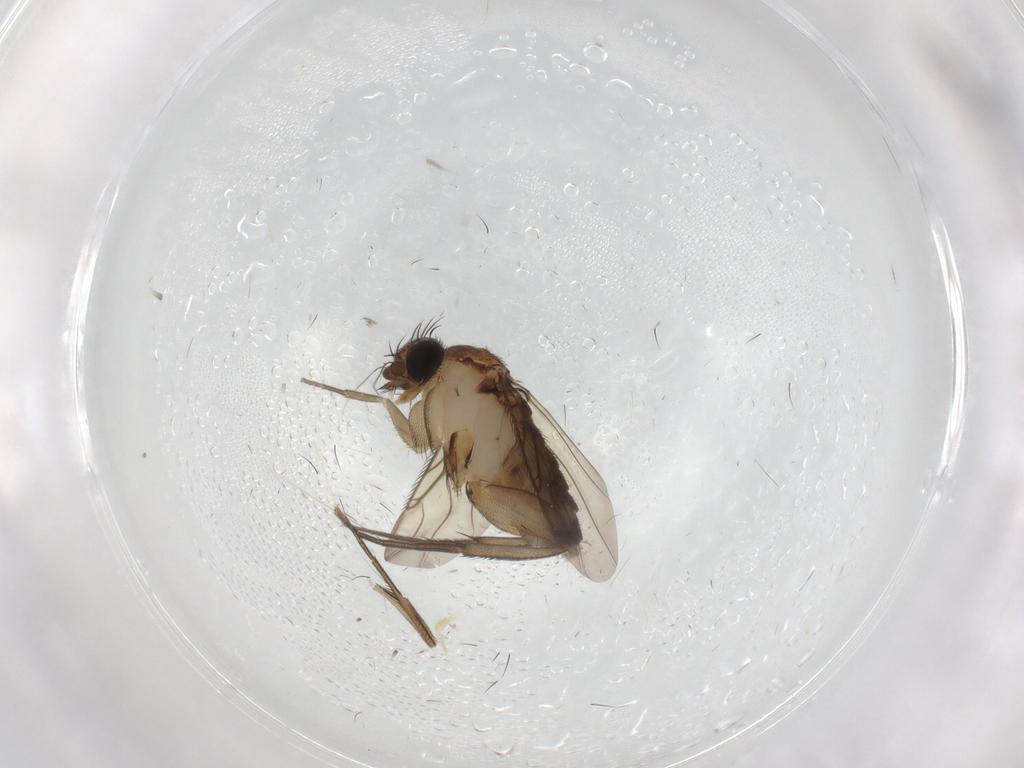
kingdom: Animalia
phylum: Arthropoda
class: Insecta
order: Diptera
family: Phoridae
